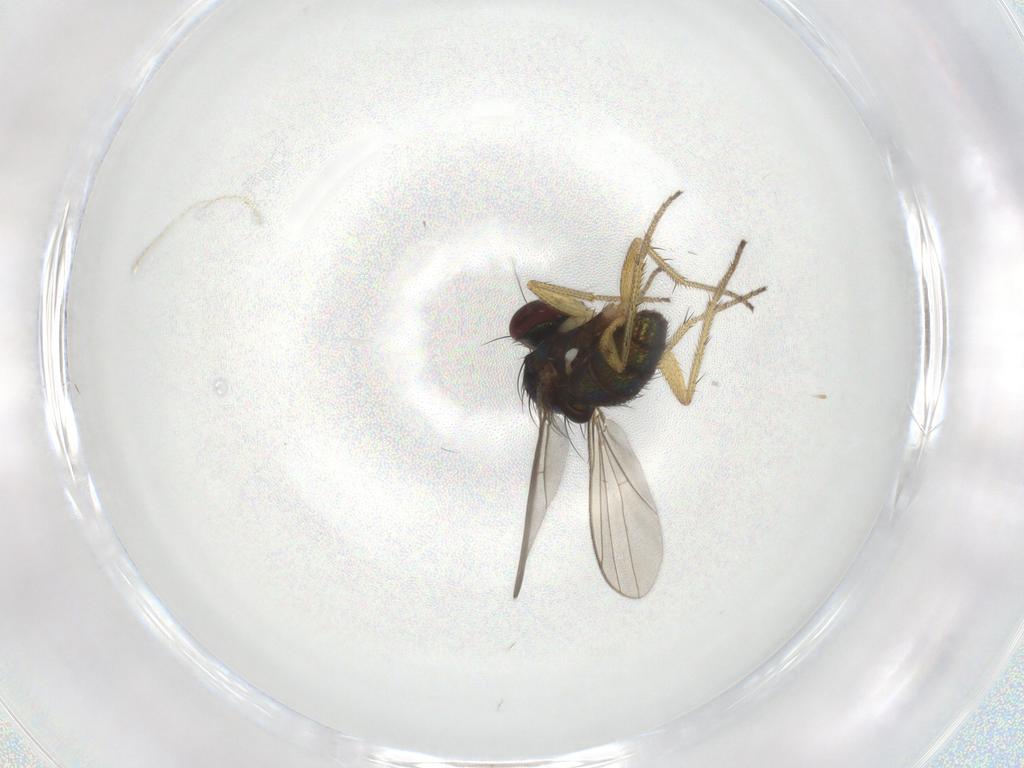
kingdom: Animalia
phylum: Arthropoda
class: Insecta
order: Diptera
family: Dolichopodidae
